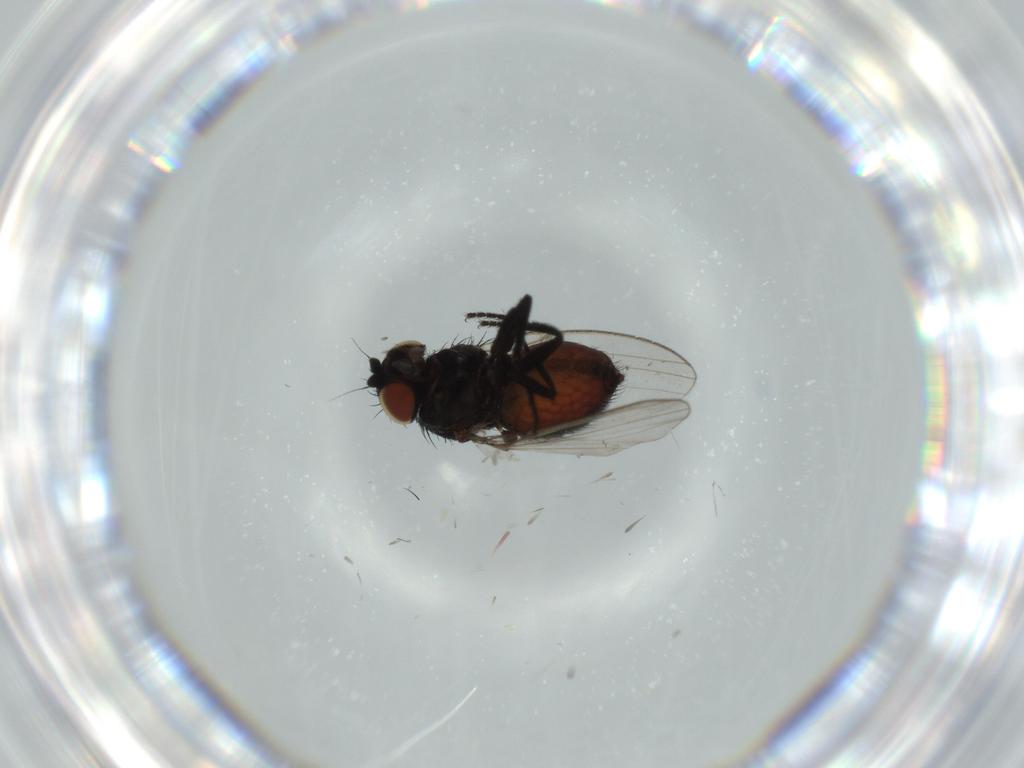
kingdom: Animalia
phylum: Arthropoda
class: Insecta
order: Diptera
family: Milichiidae
